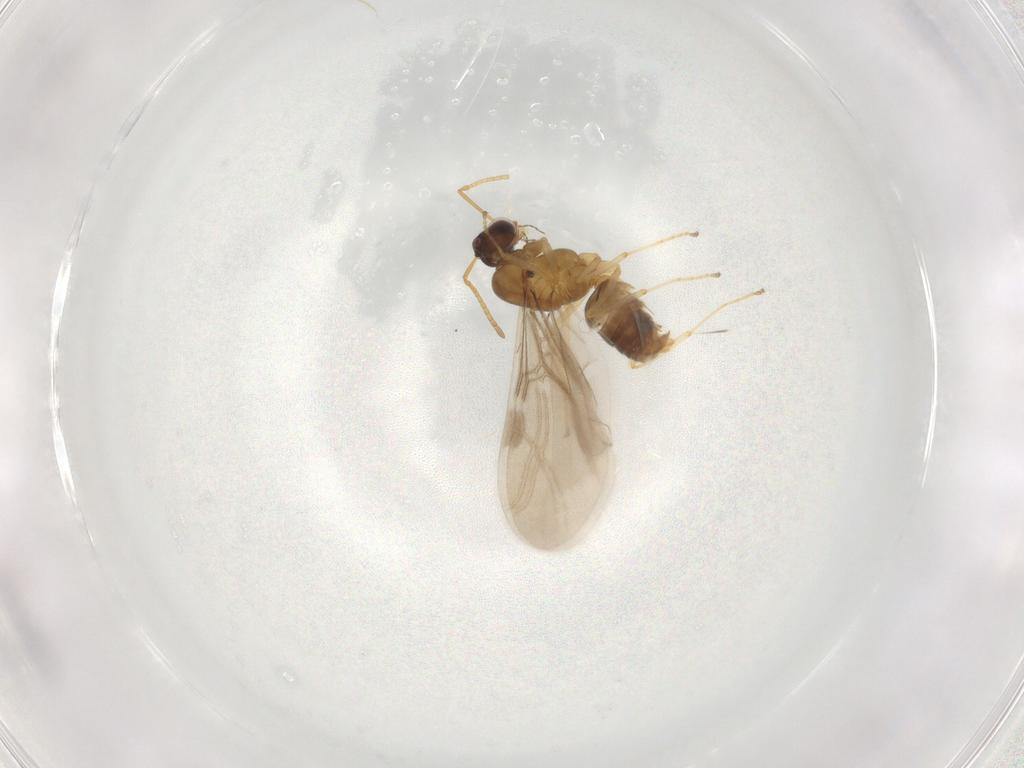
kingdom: Animalia
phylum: Arthropoda
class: Insecta
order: Hymenoptera
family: Formicidae
